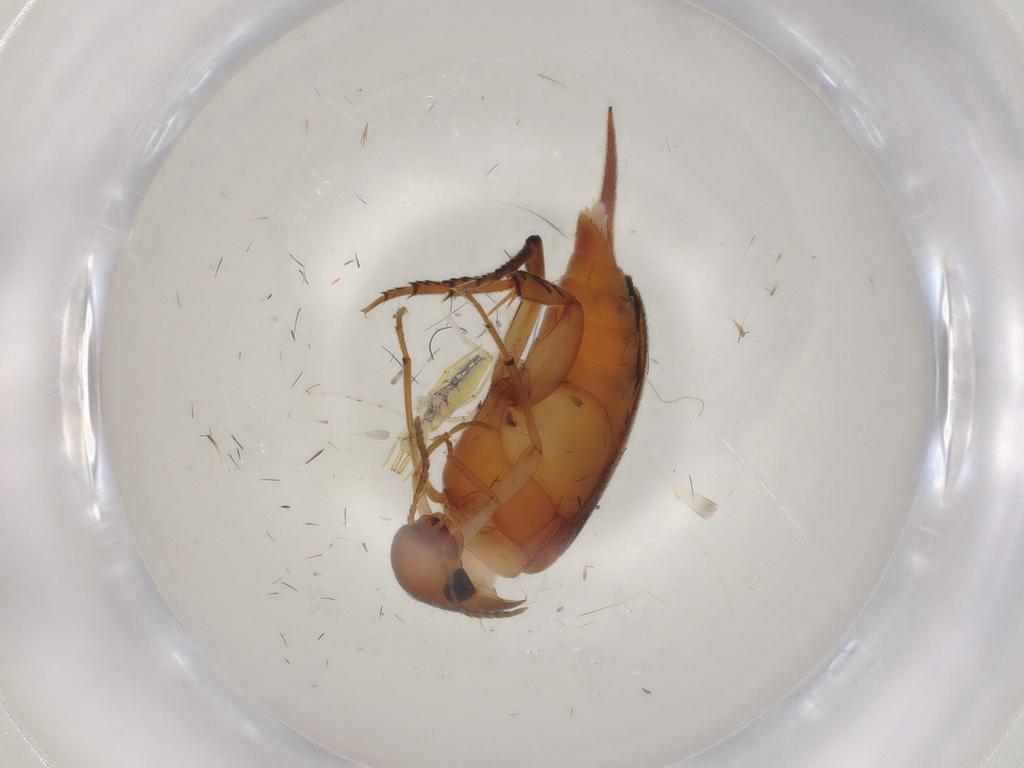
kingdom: Animalia
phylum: Arthropoda
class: Insecta
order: Coleoptera
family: Mordellidae
